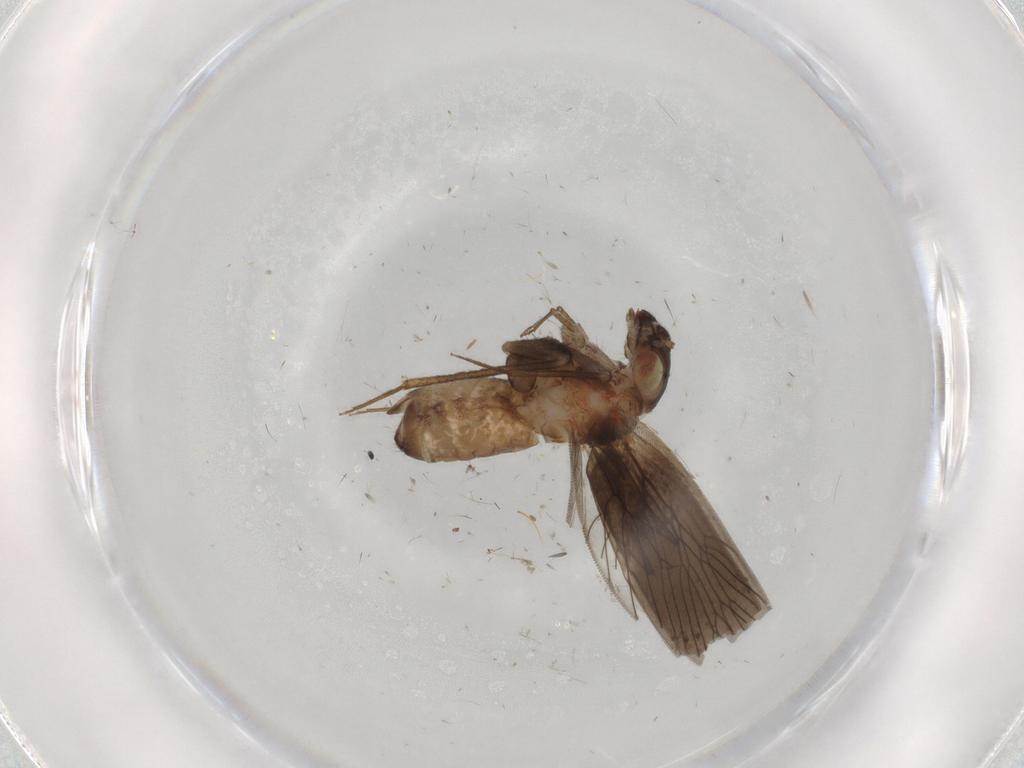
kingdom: Animalia
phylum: Arthropoda
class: Insecta
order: Psocodea
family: Lepidopsocidae
